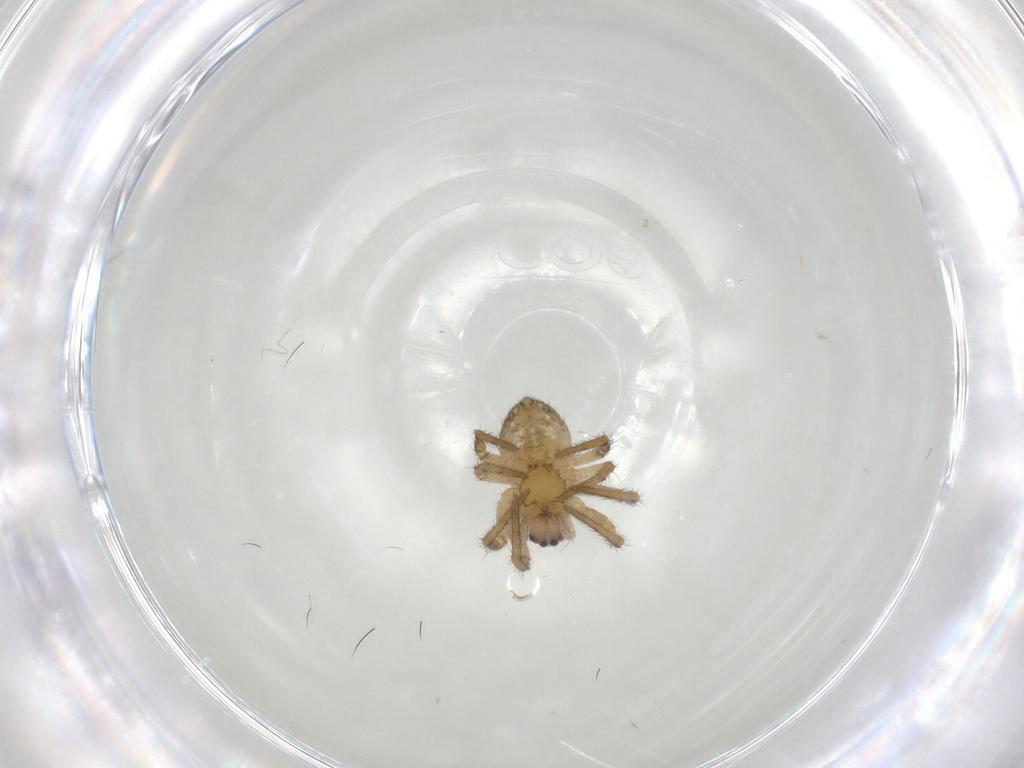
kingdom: Animalia
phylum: Arthropoda
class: Arachnida
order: Araneae
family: Araneidae
